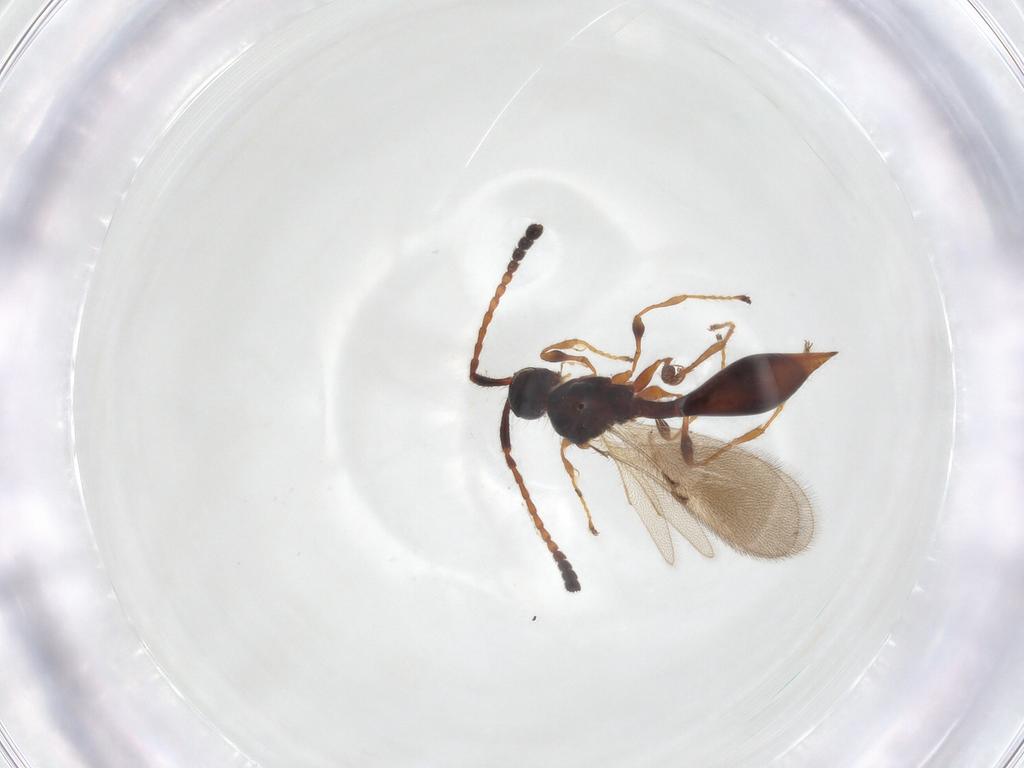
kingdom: Animalia
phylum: Arthropoda
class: Insecta
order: Hymenoptera
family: Diapriidae
